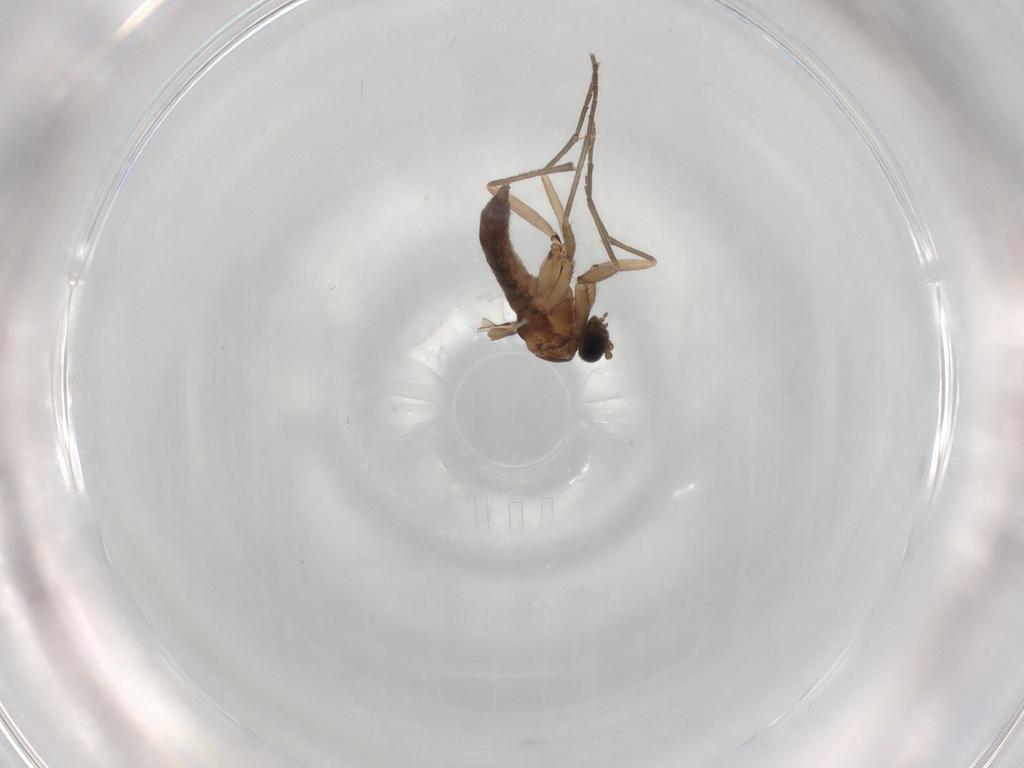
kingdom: Animalia
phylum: Arthropoda
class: Insecta
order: Diptera
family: Sciaridae
